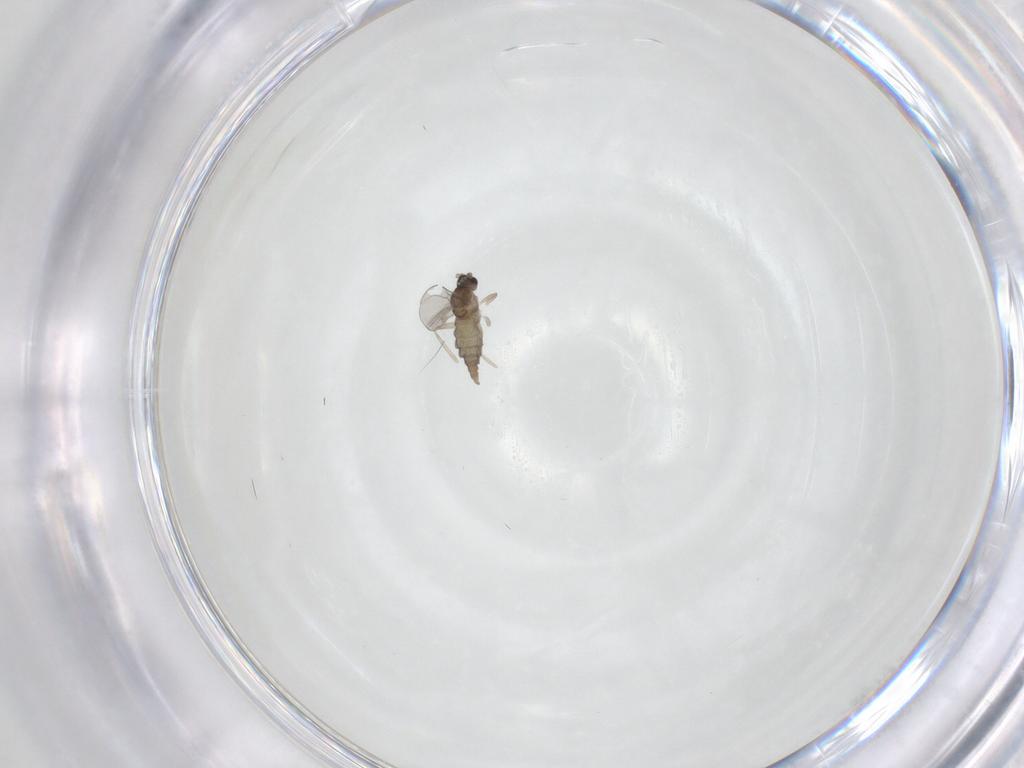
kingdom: Animalia
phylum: Arthropoda
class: Insecta
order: Diptera
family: Cecidomyiidae
